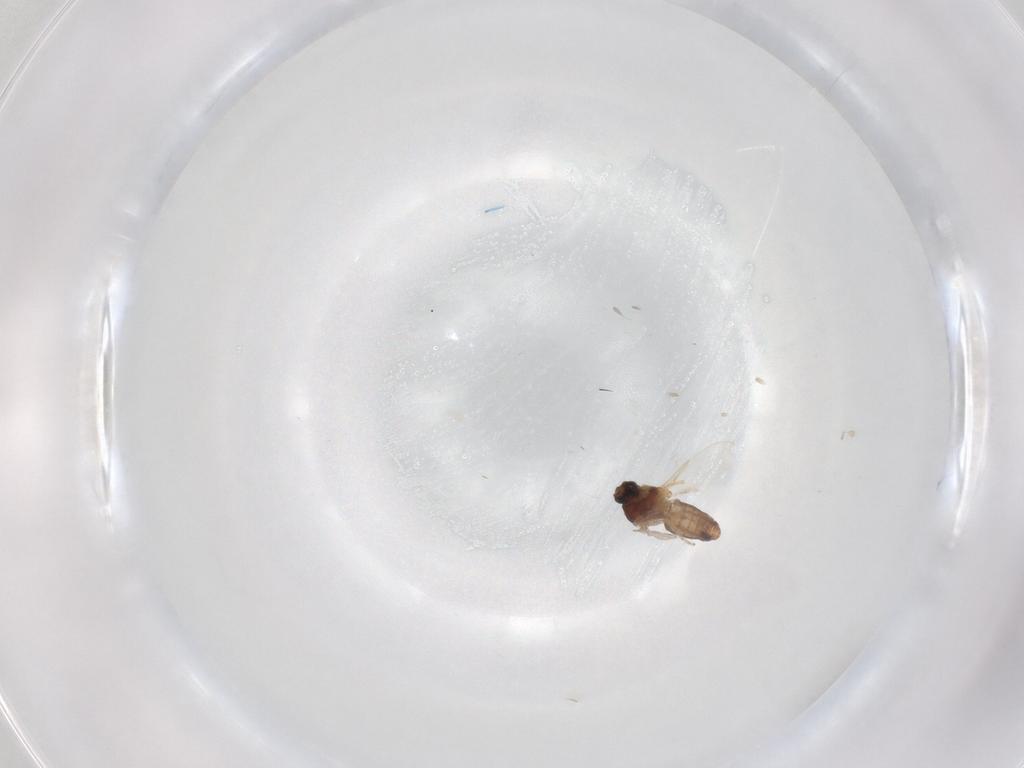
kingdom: Animalia
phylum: Arthropoda
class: Insecta
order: Diptera
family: Ceratopogonidae
